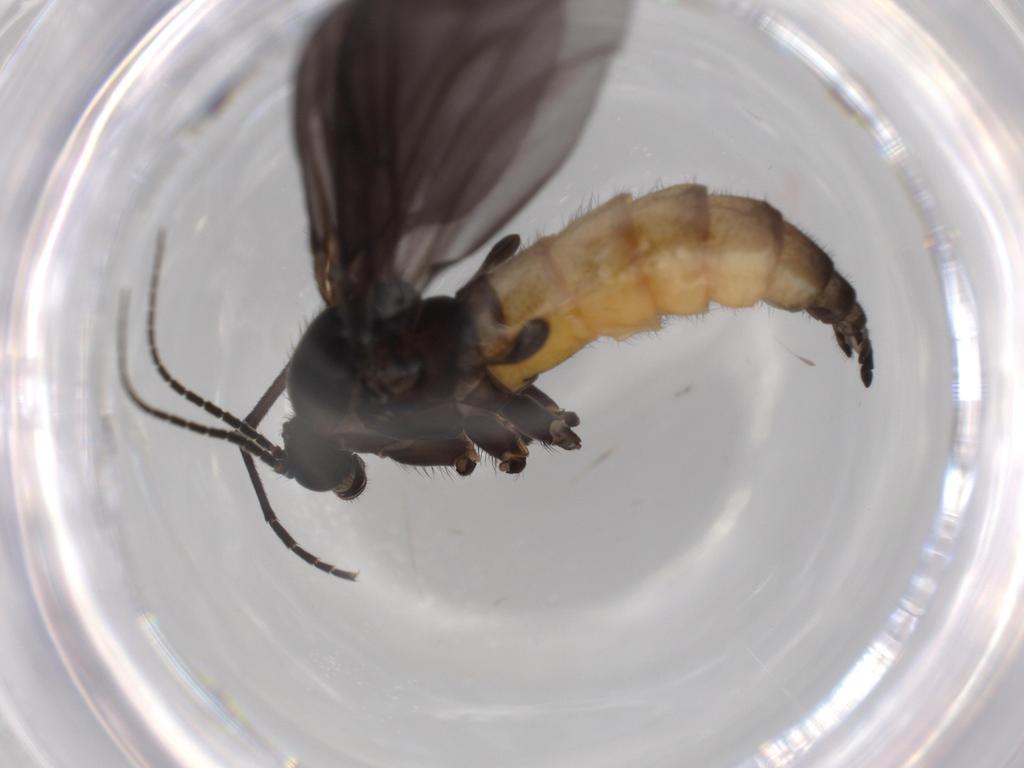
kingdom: Animalia
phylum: Arthropoda
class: Insecta
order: Diptera
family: Cecidomyiidae
